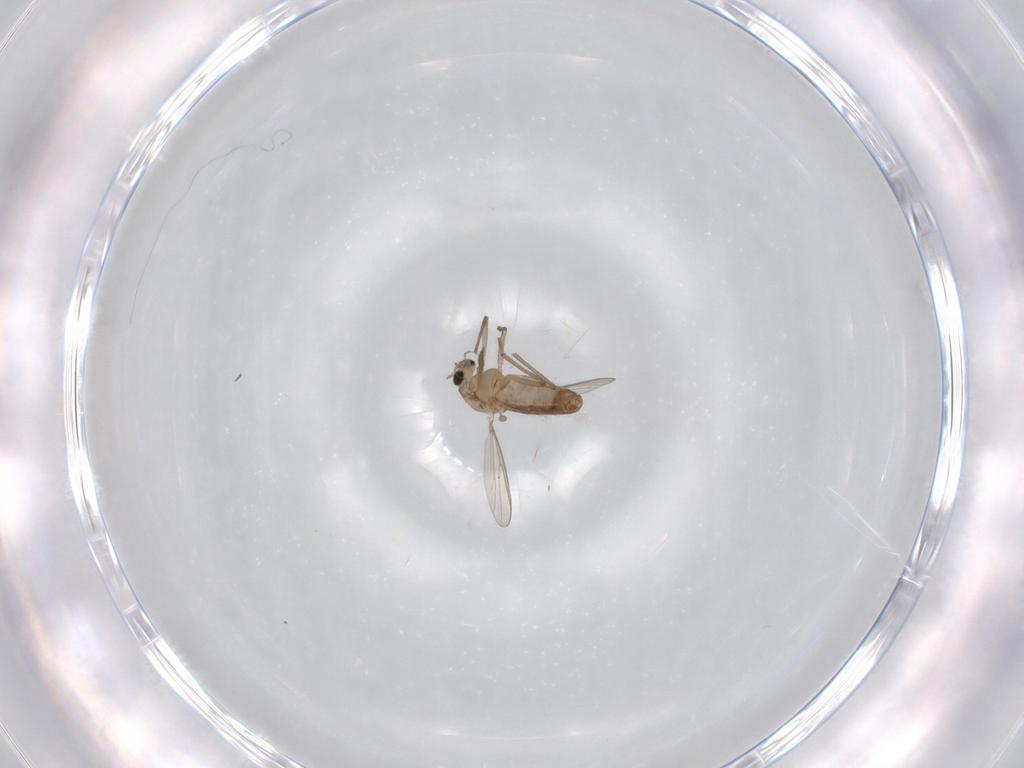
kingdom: Animalia
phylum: Arthropoda
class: Insecta
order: Diptera
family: Chironomidae
